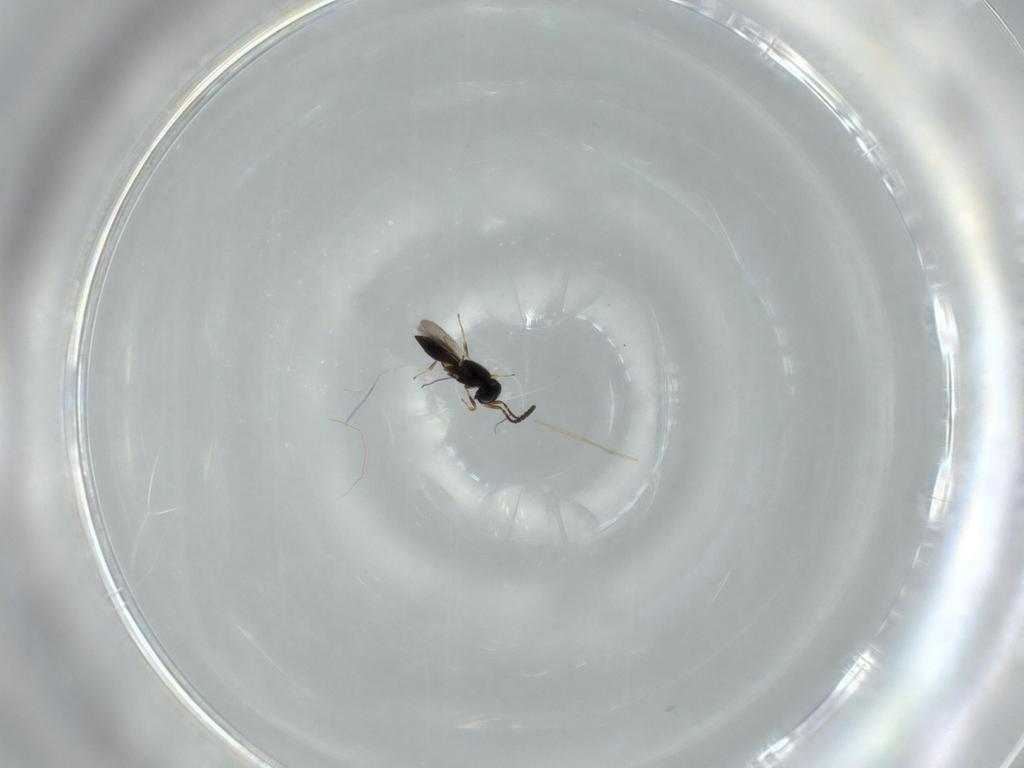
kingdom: Animalia
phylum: Arthropoda
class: Insecta
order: Hymenoptera
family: Scelionidae
